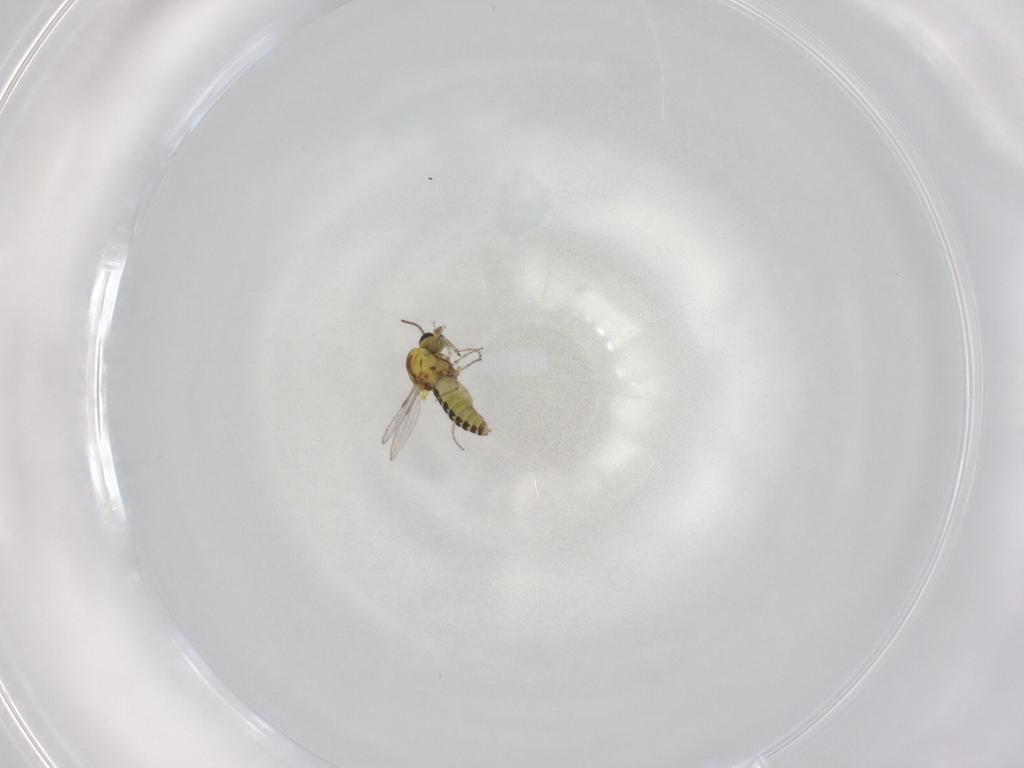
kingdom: Animalia
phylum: Arthropoda
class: Insecta
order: Diptera
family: Chironomidae
